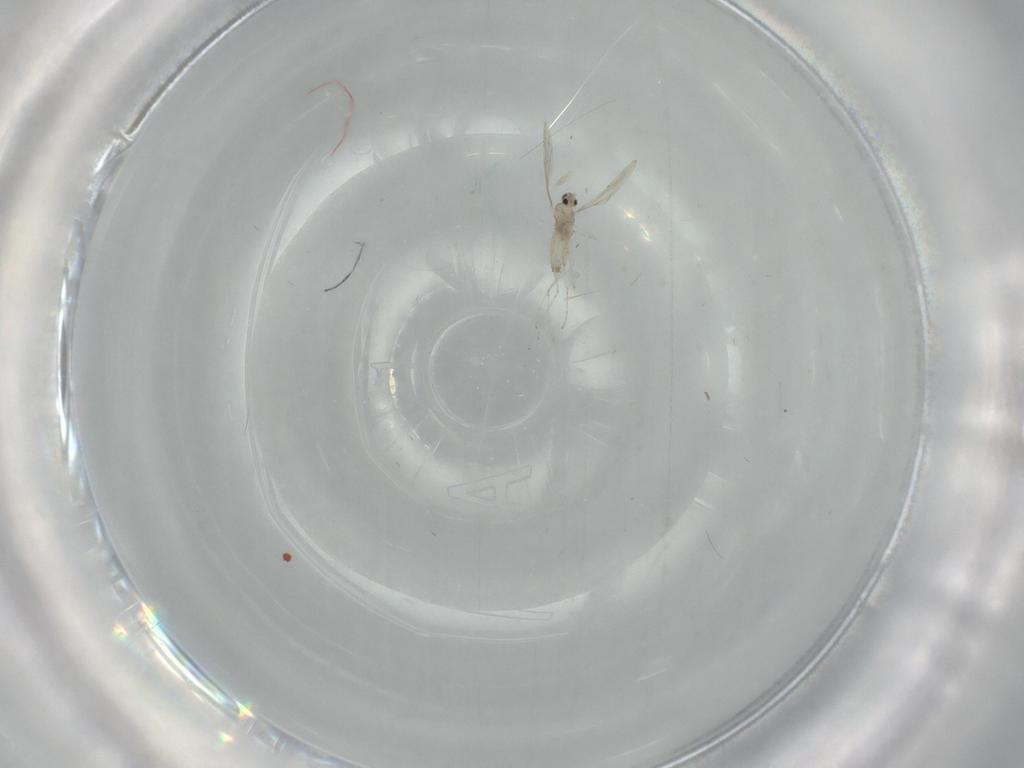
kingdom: Animalia
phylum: Arthropoda
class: Insecta
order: Diptera
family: Cecidomyiidae
